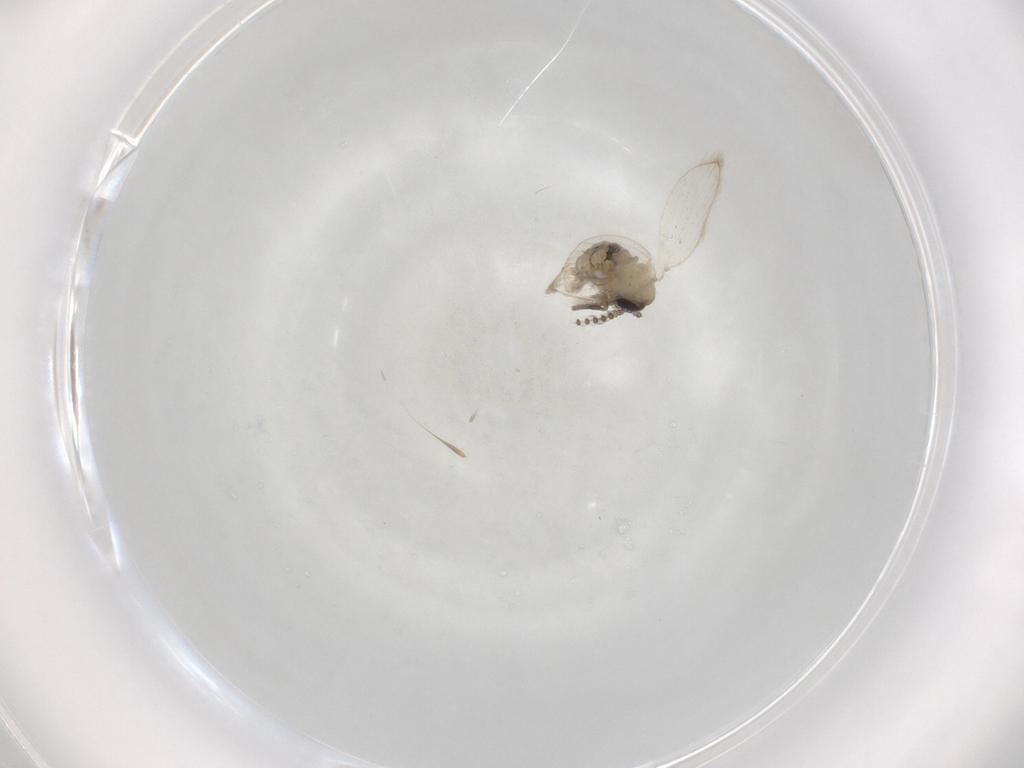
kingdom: Animalia
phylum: Arthropoda
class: Insecta
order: Diptera
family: Psychodidae
